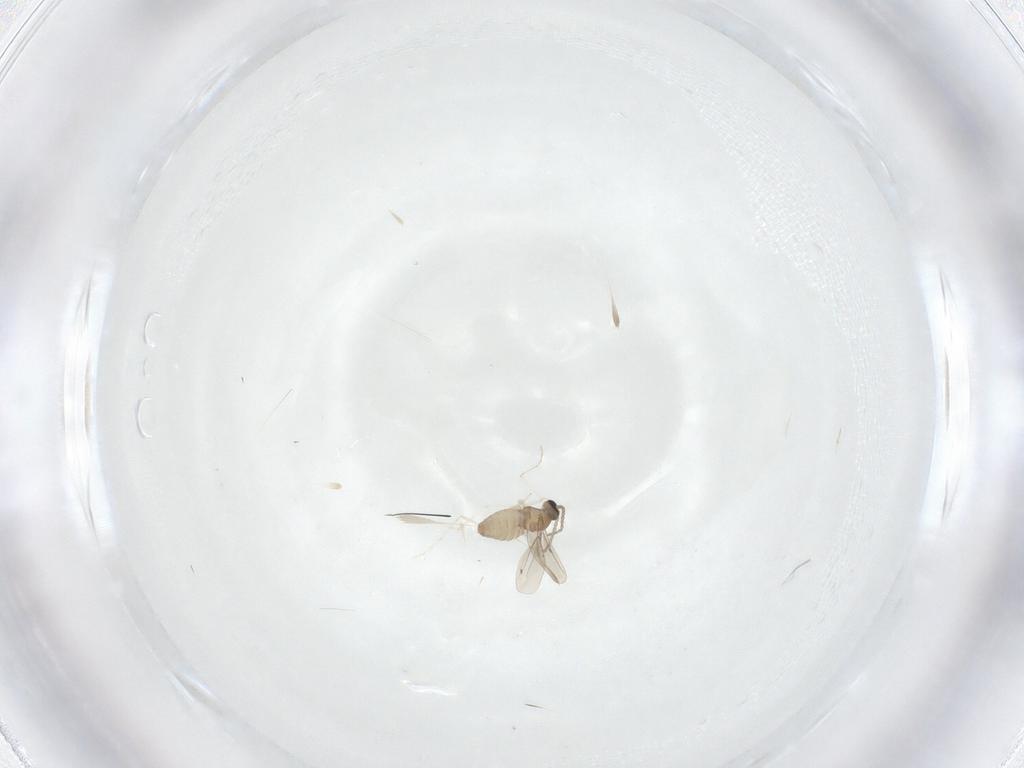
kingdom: Animalia
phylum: Arthropoda
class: Insecta
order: Diptera
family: Cecidomyiidae
